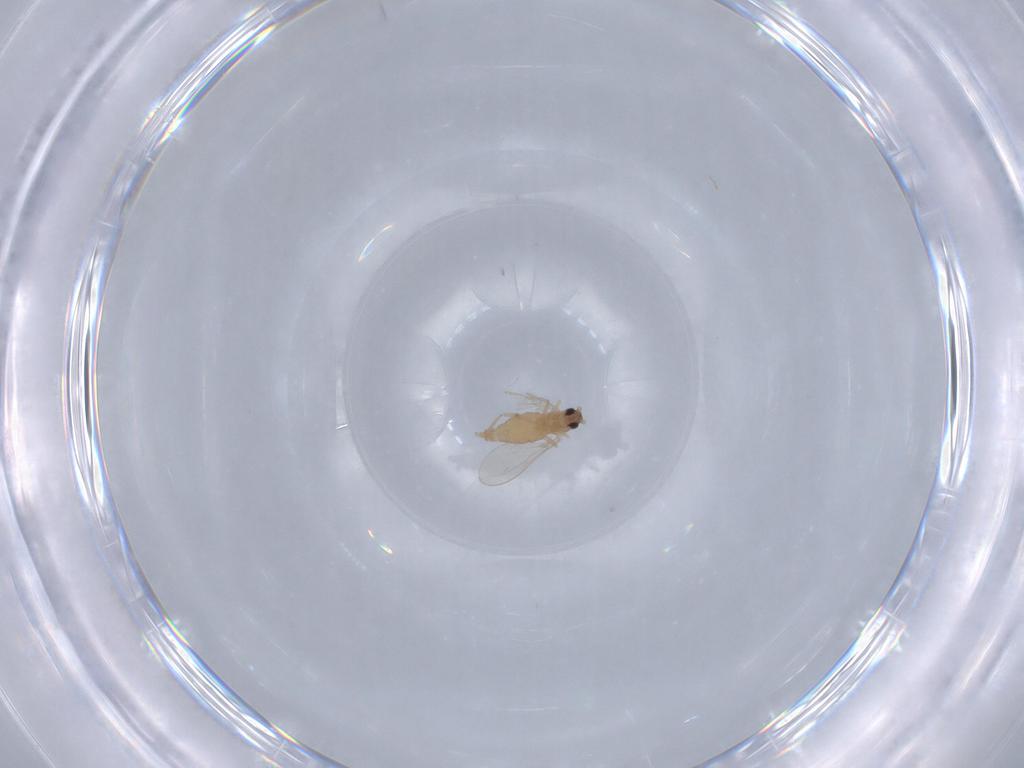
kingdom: Animalia
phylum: Arthropoda
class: Insecta
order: Diptera
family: Cecidomyiidae
